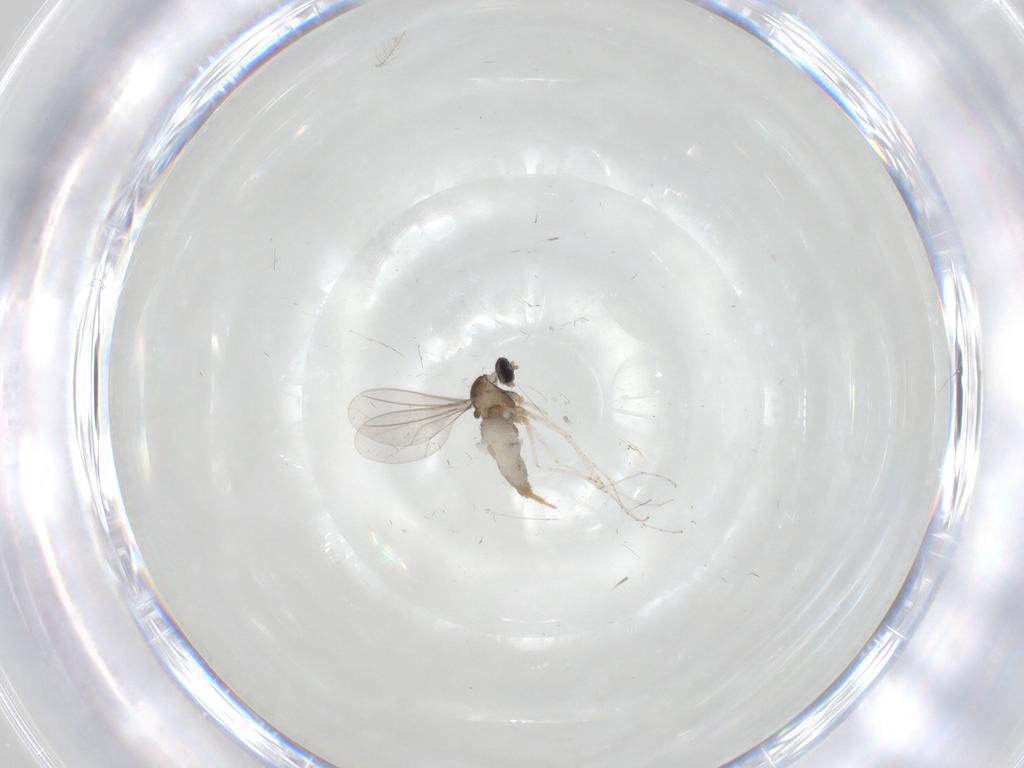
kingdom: Animalia
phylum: Arthropoda
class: Insecta
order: Diptera
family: Cecidomyiidae
